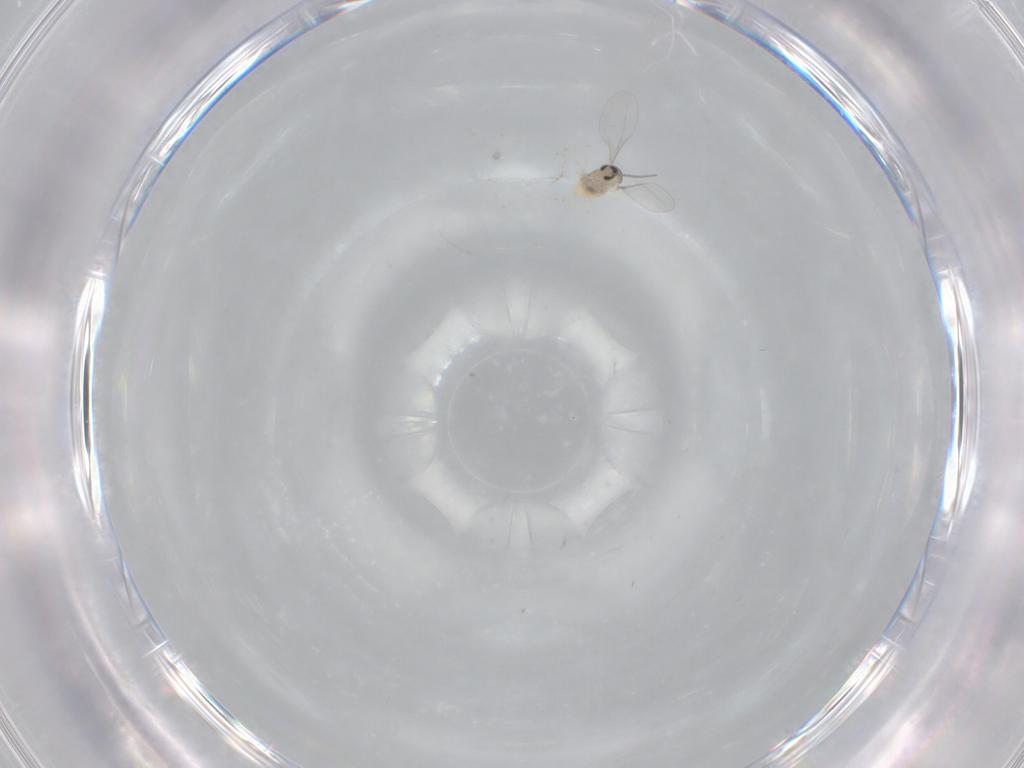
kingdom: Animalia
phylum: Arthropoda
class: Insecta
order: Diptera
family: Cecidomyiidae
